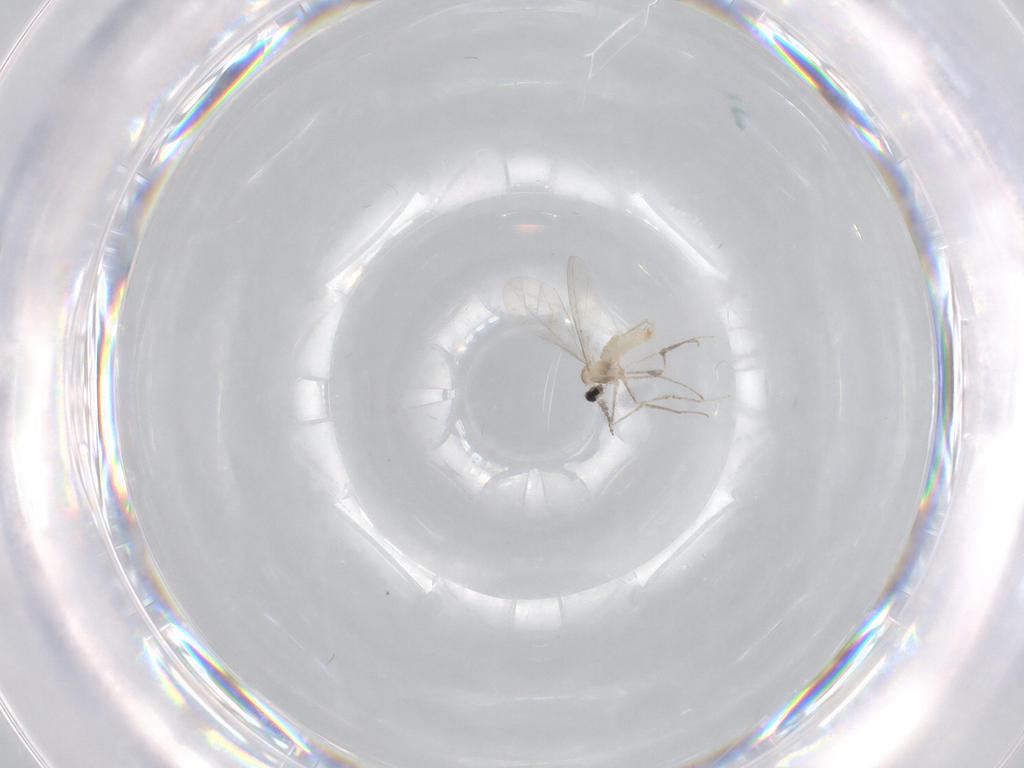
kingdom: Animalia
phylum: Arthropoda
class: Insecta
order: Diptera
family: Cecidomyiidae
